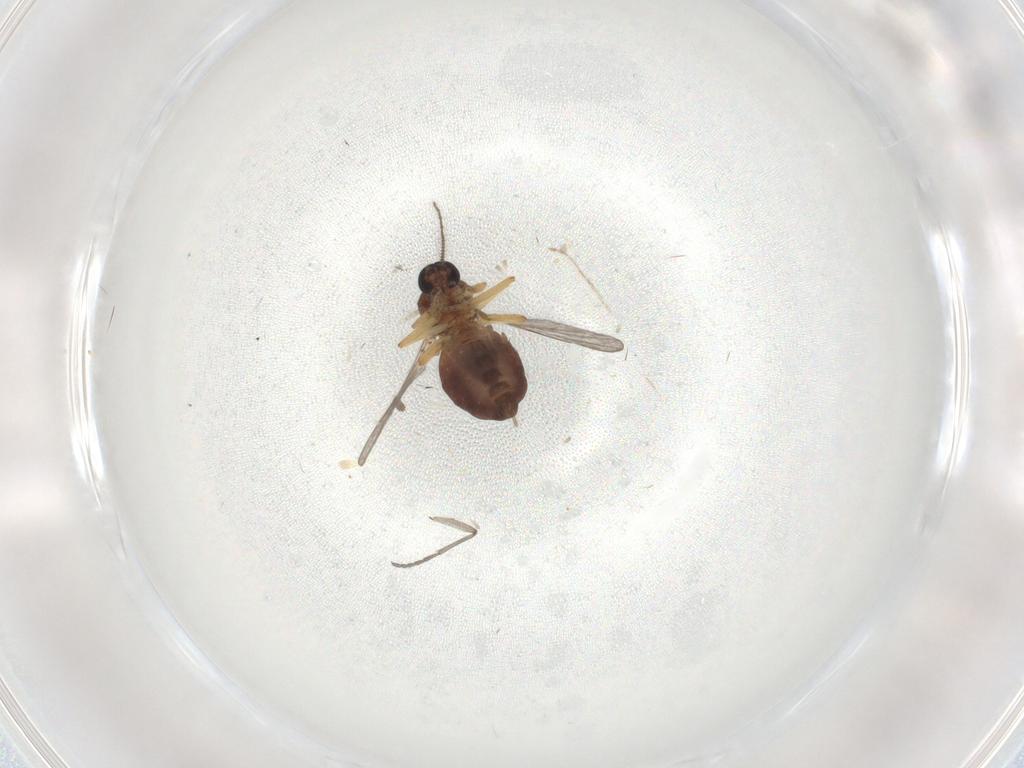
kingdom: Animalia
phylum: Arthropoda
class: Insecta
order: Diptera
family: Ceratopogonidae
